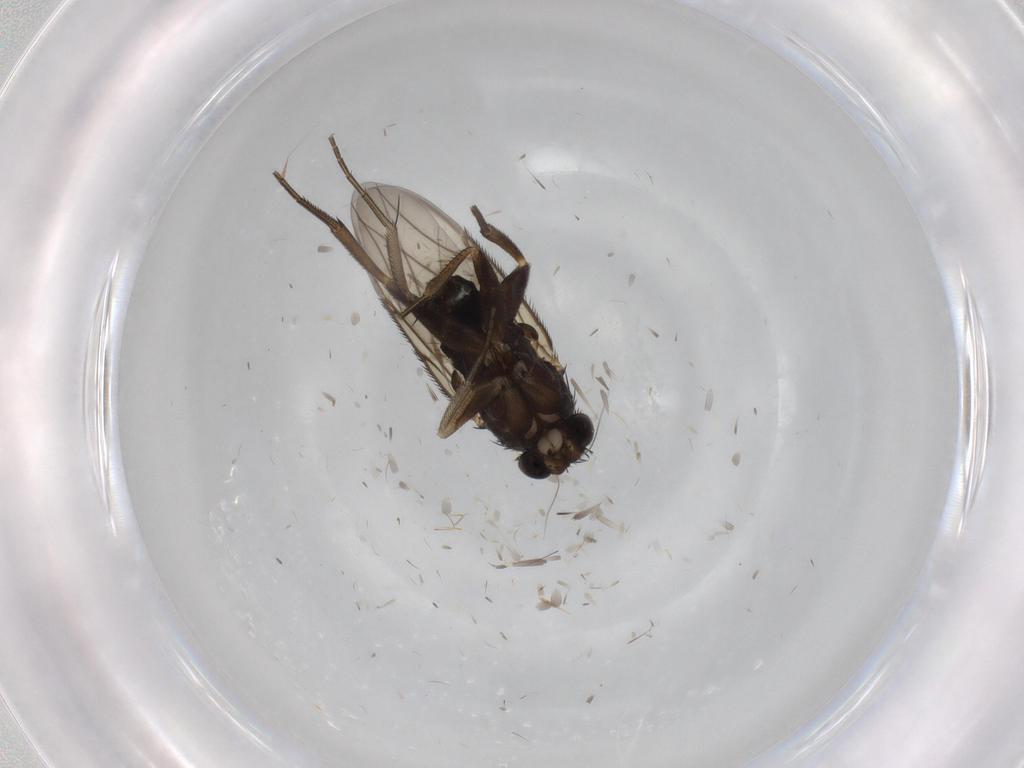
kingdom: Animalia
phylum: Arthropoda
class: Insecta
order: Diptera
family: Phoridae
